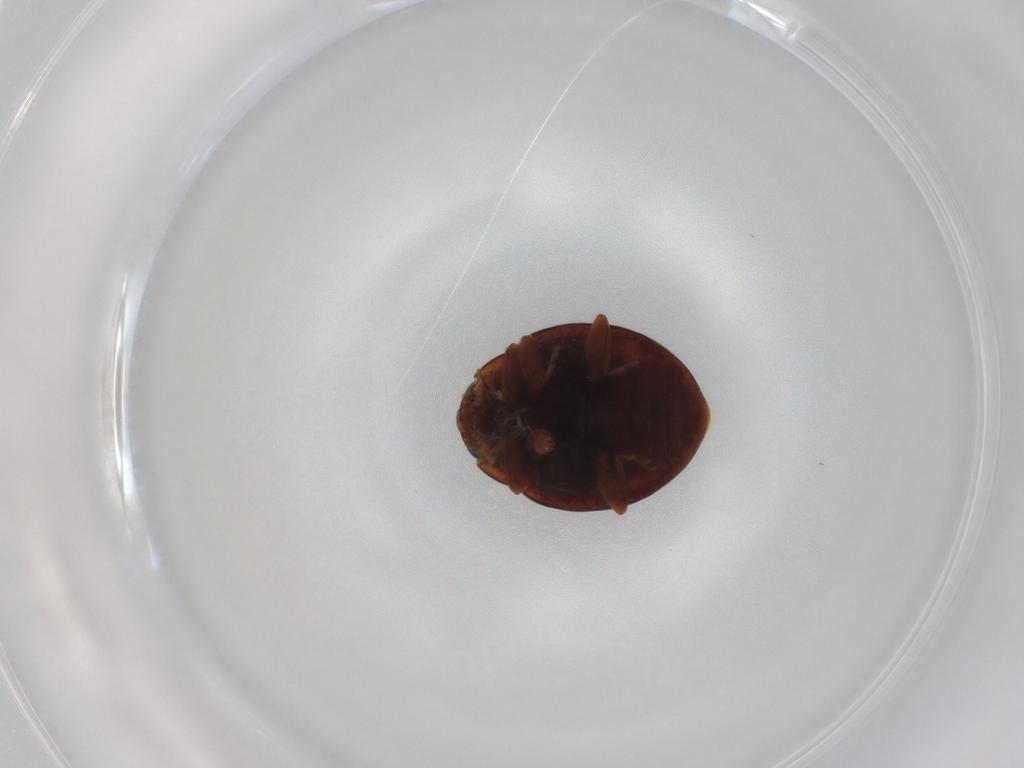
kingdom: Animalia
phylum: Arthropoda
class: Insecta
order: Coleoptera
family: Coccinellidae
